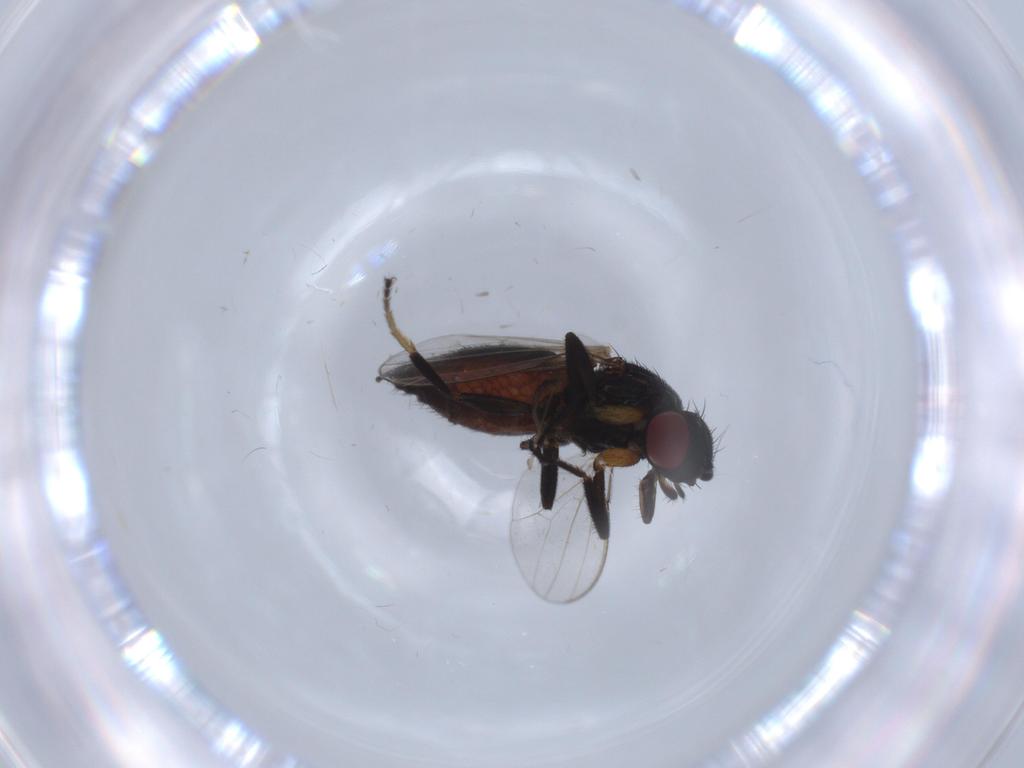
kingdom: Animalia
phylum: Arthropoda
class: Insecta
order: Diptera
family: Milichiidae
